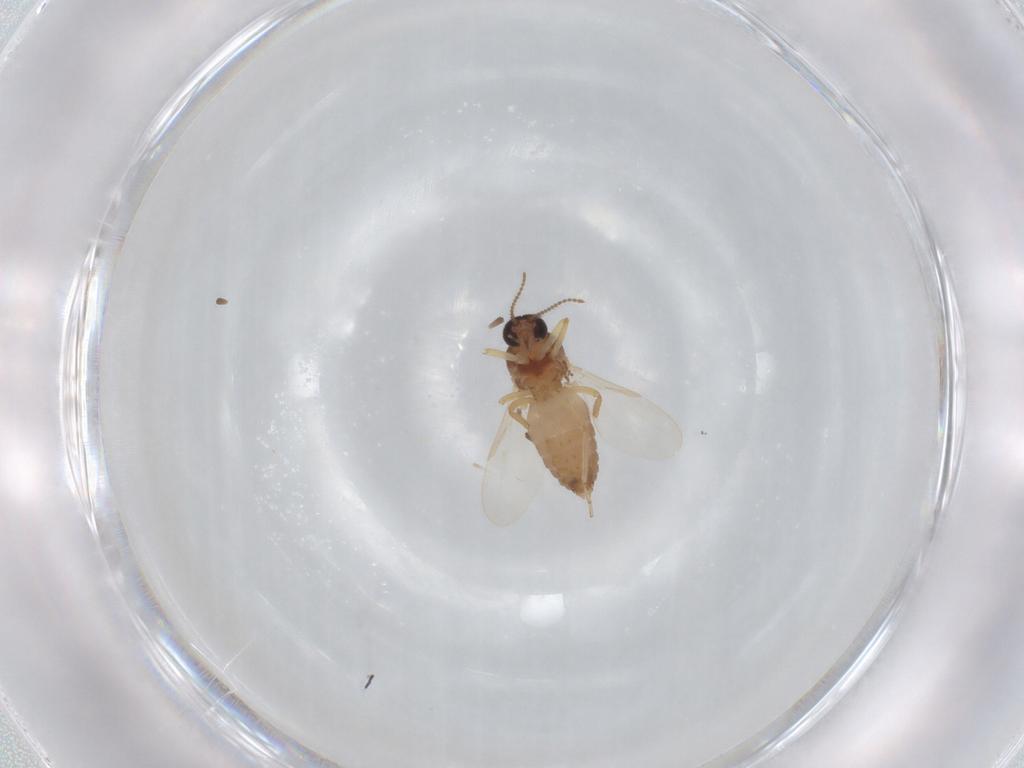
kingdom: Animalia
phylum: Arthropoda
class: Insecta
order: Diptera
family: Ceratopogonidae
